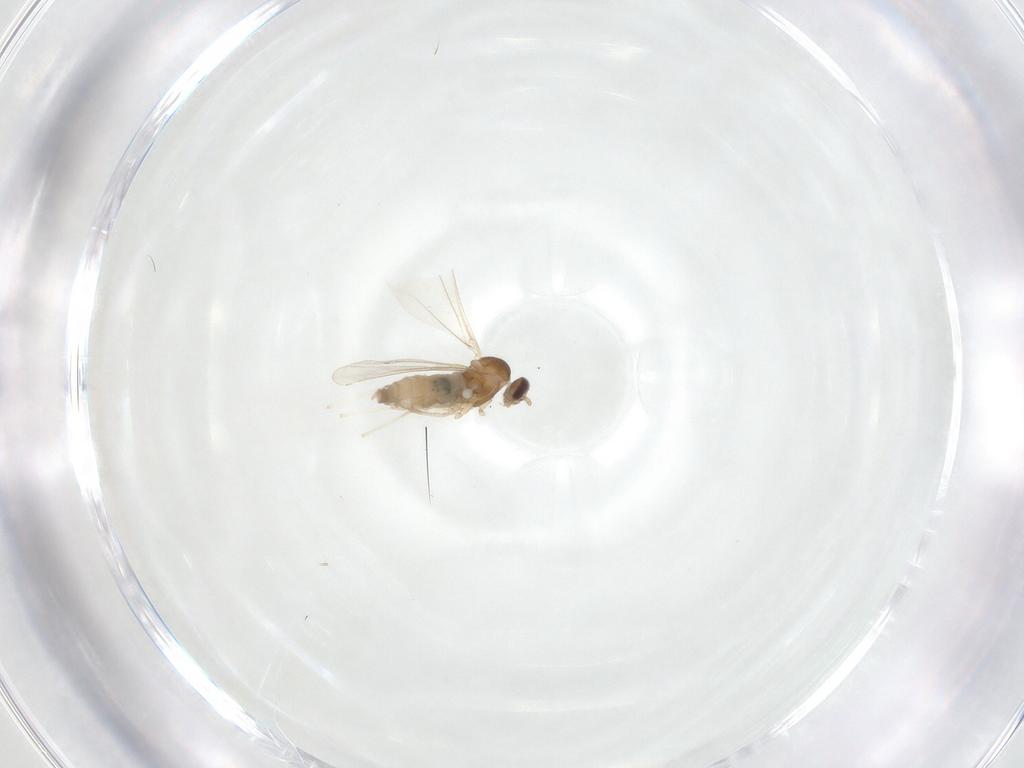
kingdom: Animalia
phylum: Arthropoda
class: Insecta
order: Diptera
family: Cecidomyiidae
